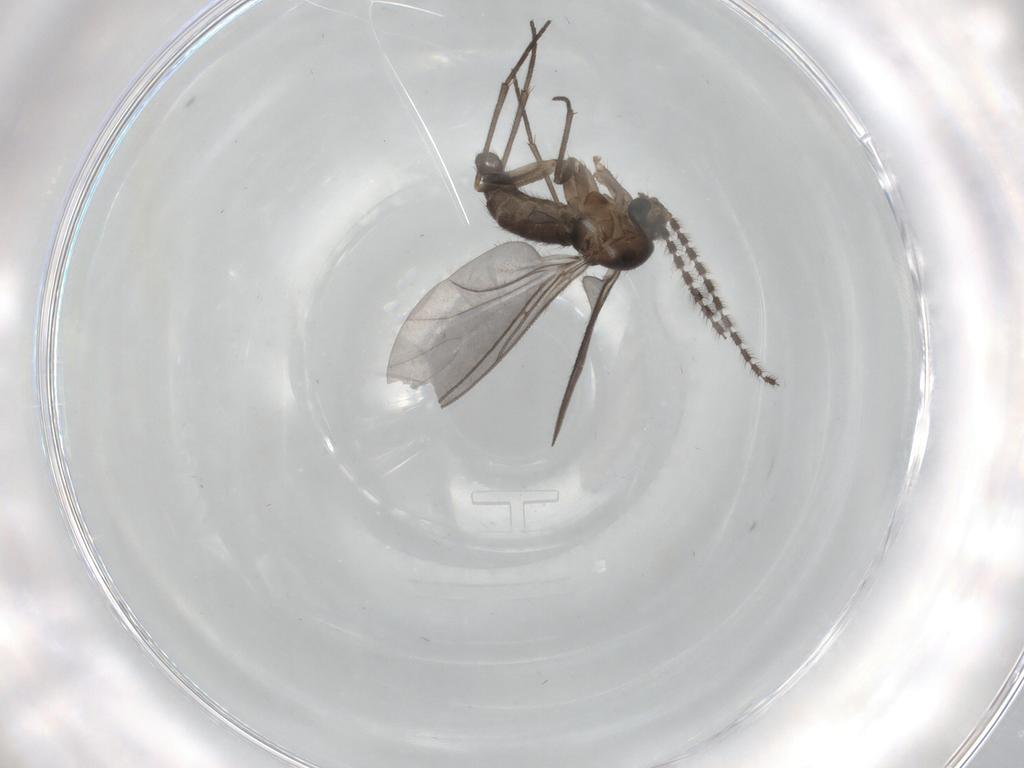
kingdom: Animalia
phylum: Arthropoda
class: Insecta
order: Diptera
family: Sciaridae
